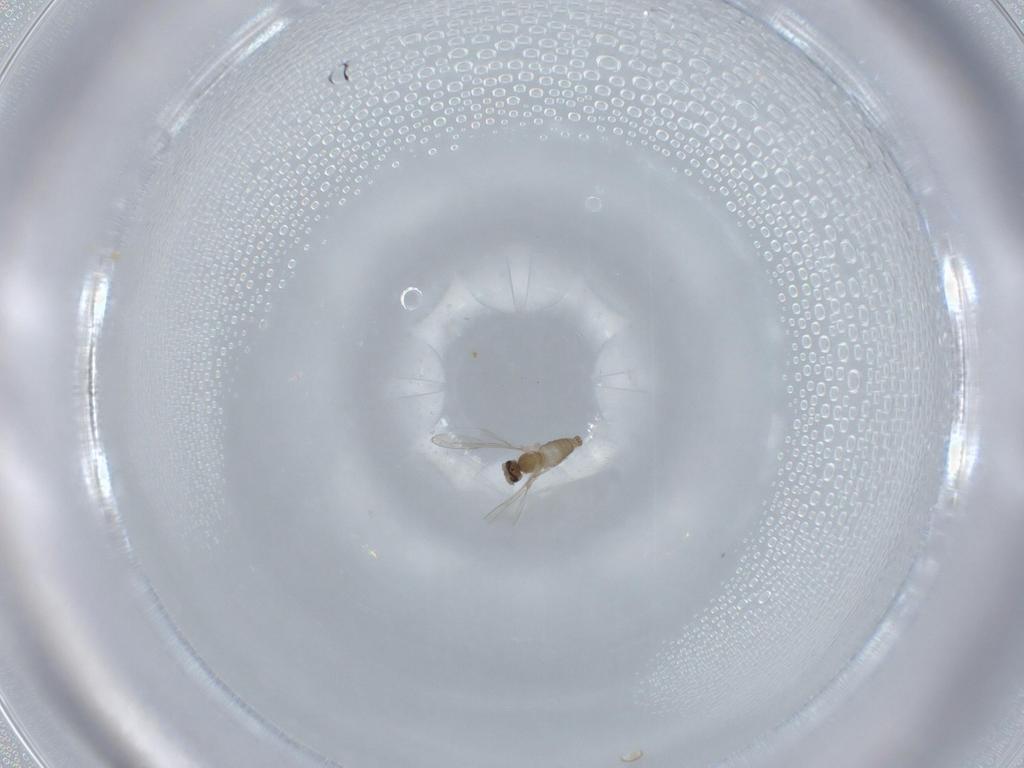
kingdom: Animalia
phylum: Arthropoda
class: Insecta
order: Diptera
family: Cecidomyiidae
